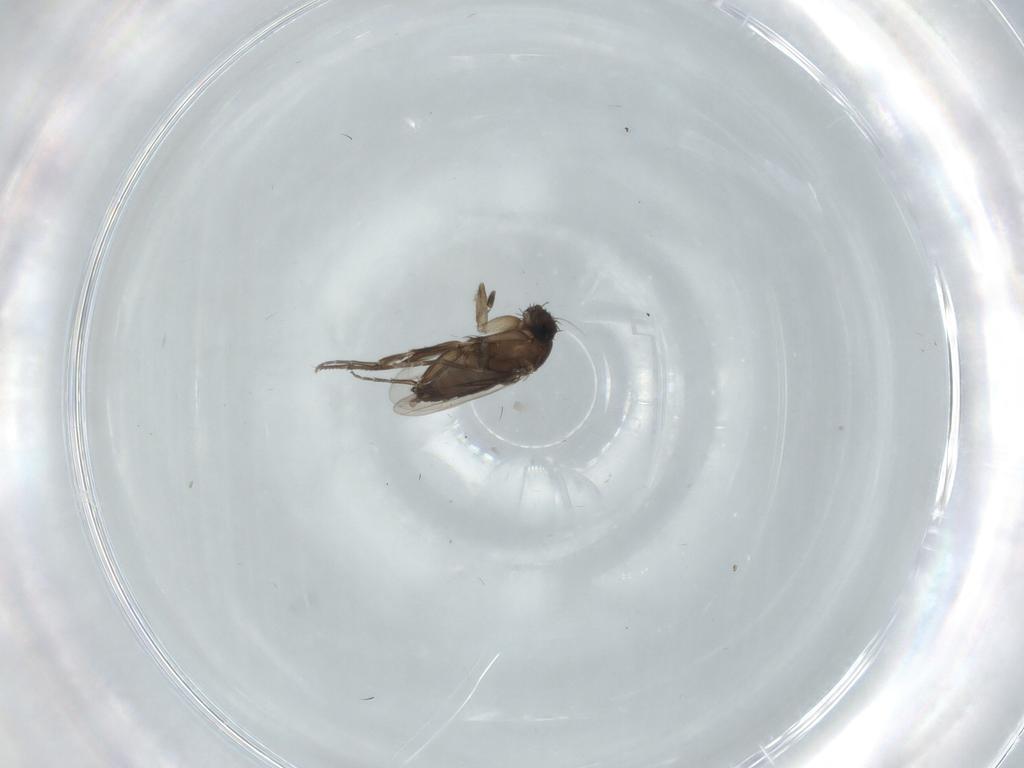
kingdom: Animalia
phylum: Arthropoda
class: Insecta
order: Diptera
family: Phoridae
